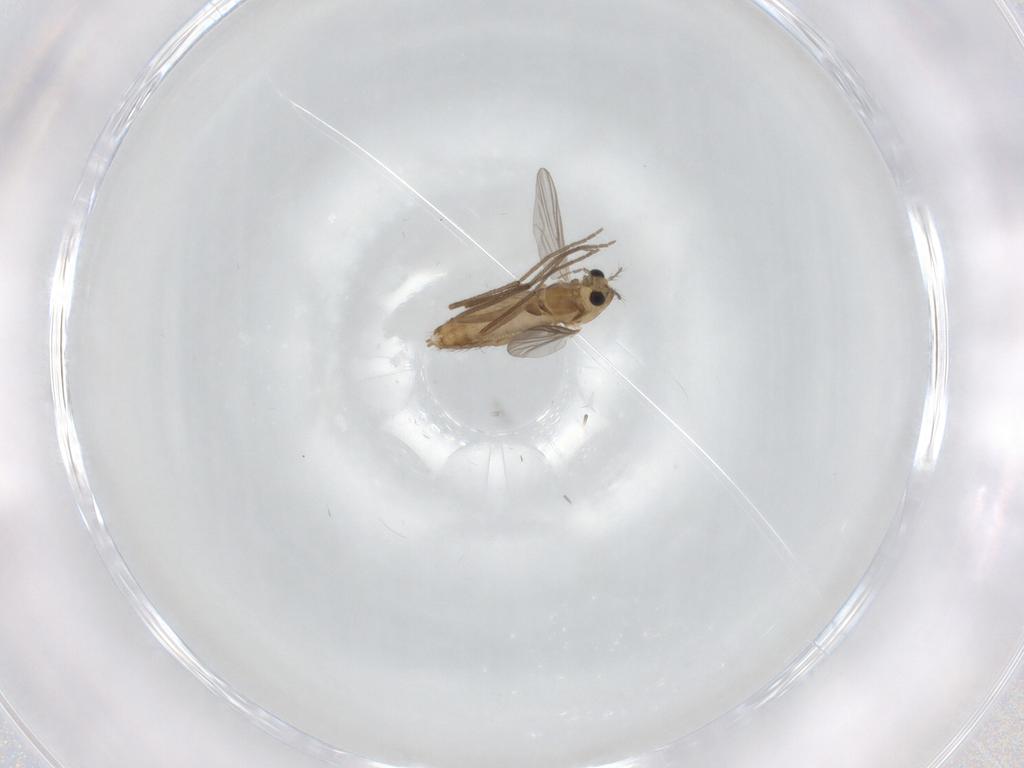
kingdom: Animalia
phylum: Arthropoda
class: Insecta
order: Diptera
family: Chironomidae
